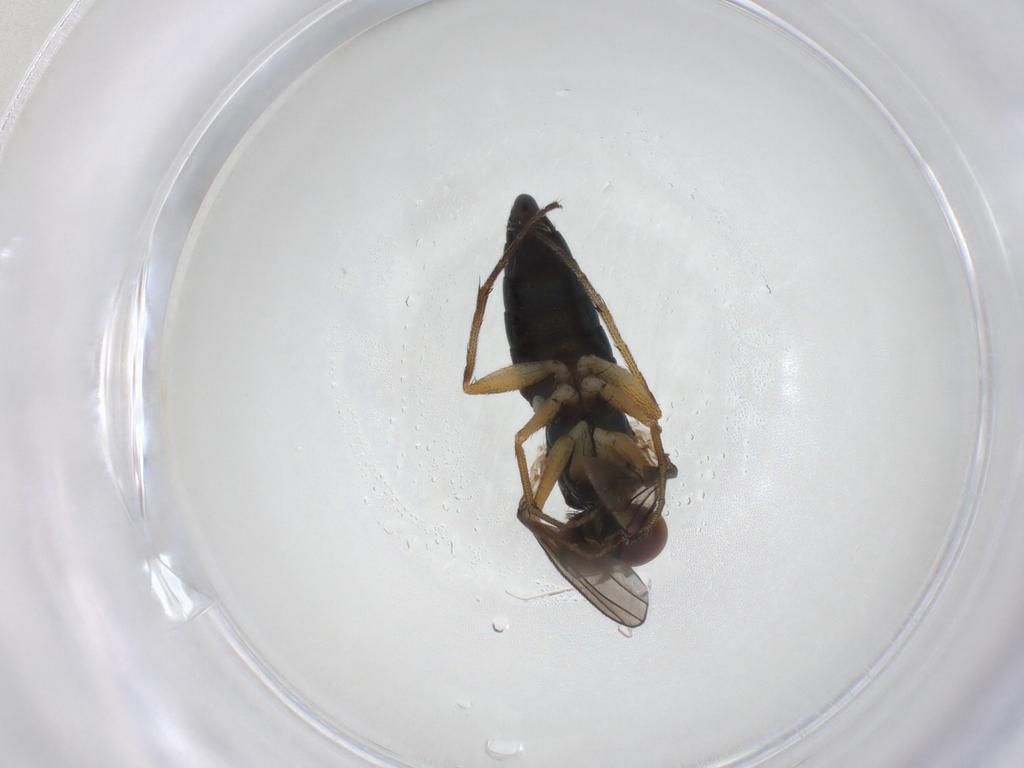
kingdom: Animalia
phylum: Arthropoda
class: Insecta
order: Diptera
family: Dolichopodidae
